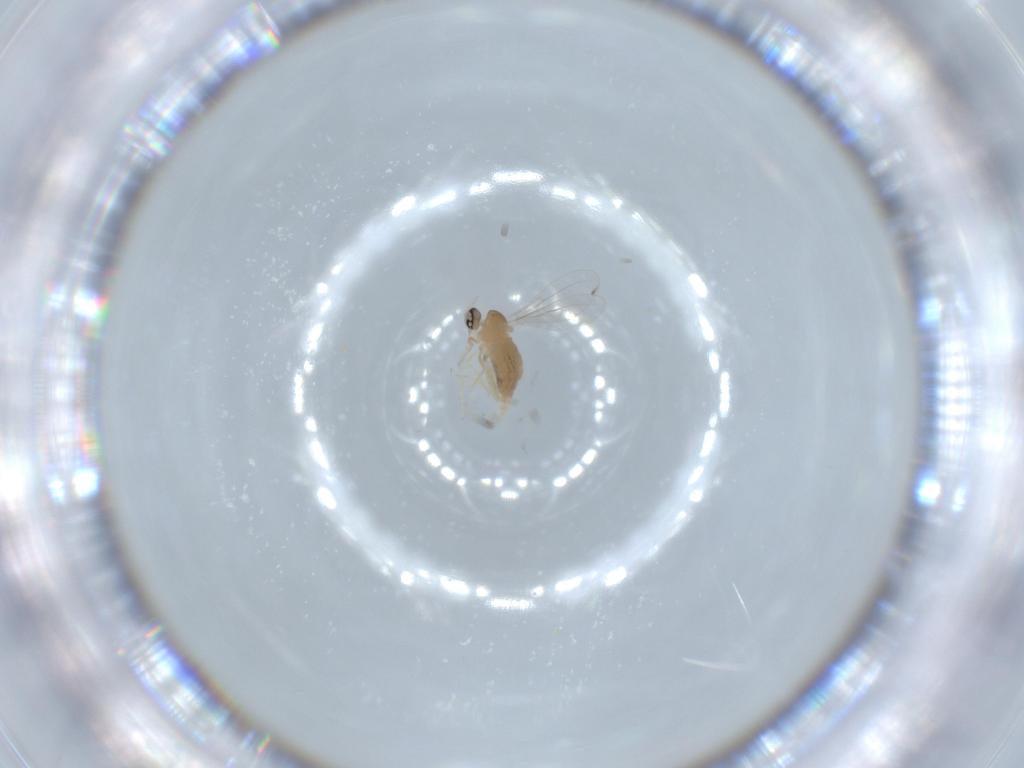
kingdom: Animalia
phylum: Arthropoda
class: Insecta
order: Diptera
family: Cecidomyiidae
